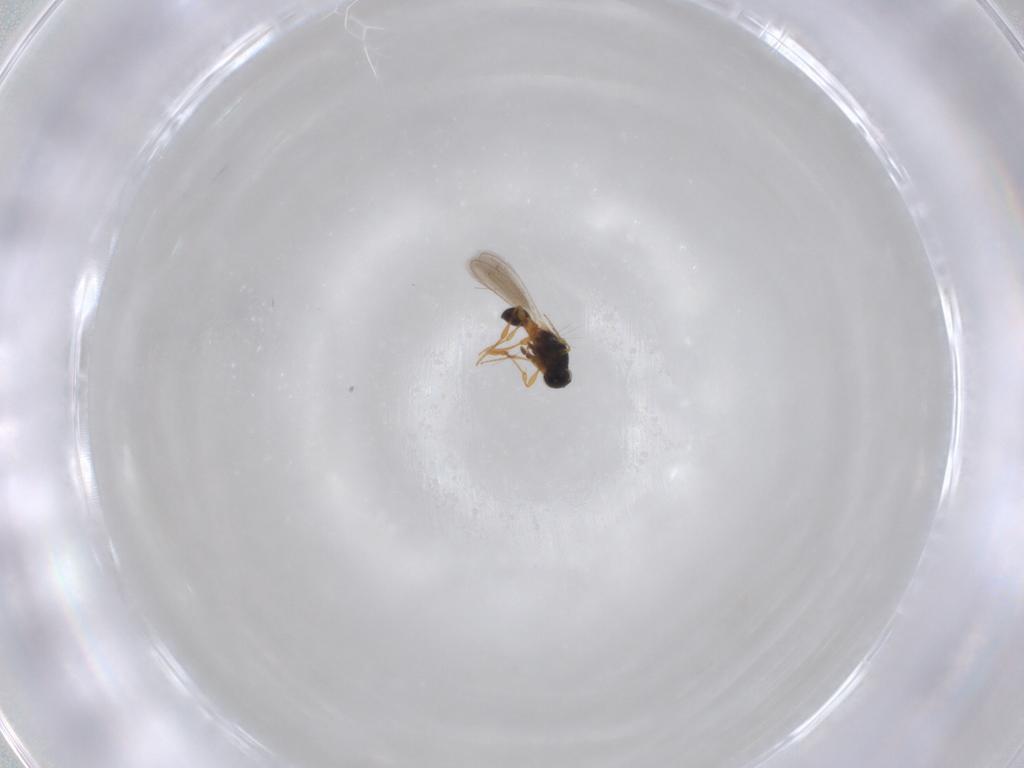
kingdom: Animalia
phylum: Arthropoda
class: Insecta
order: Hymenoptera
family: Platygastridae
